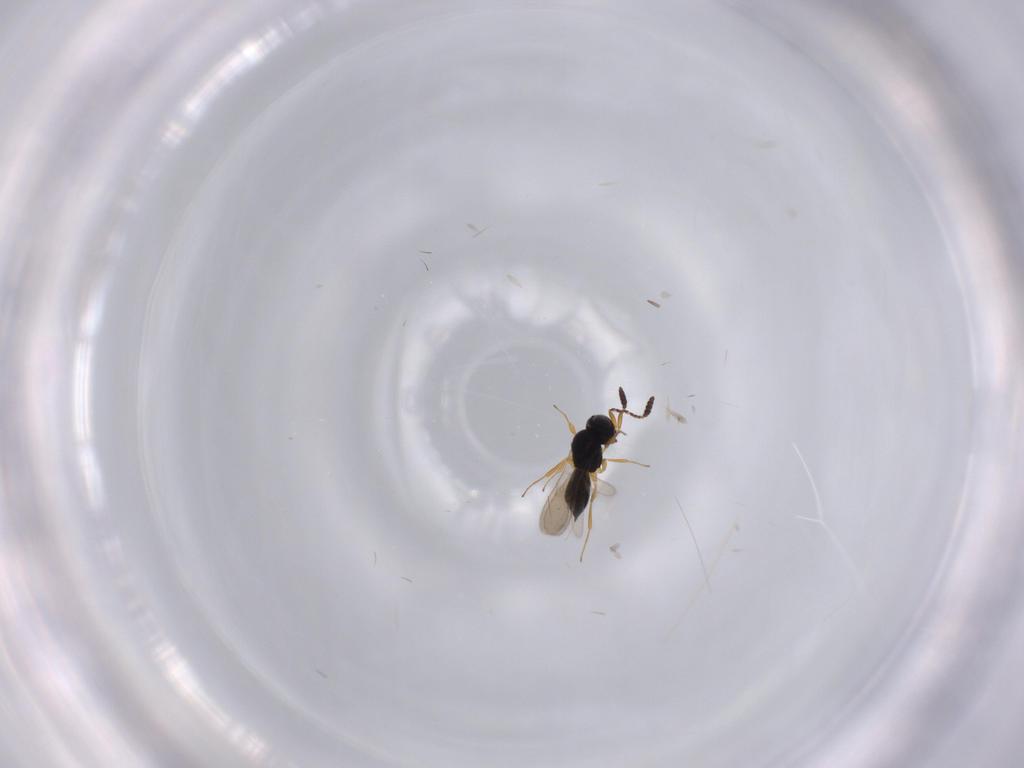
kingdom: Animalia
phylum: Arthropoda
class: Insecta
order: Hymenoptera
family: Scelionidae
